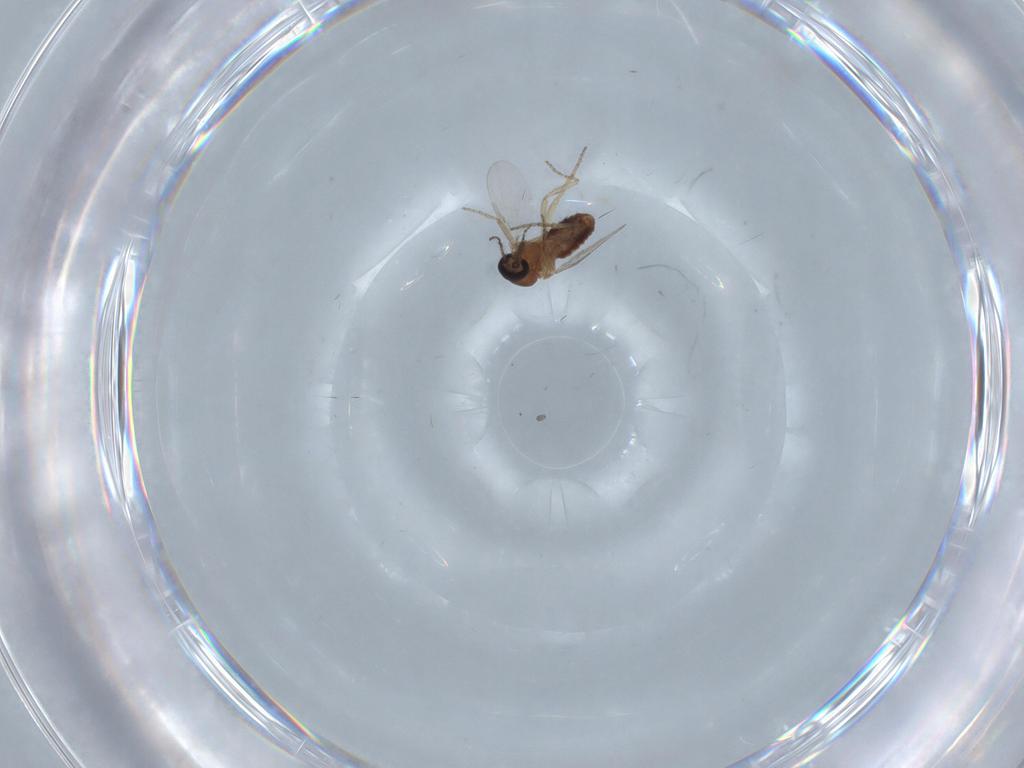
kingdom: Animalia
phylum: Arthropoda
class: Insecta
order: Diptera
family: Ceratopogonidae
